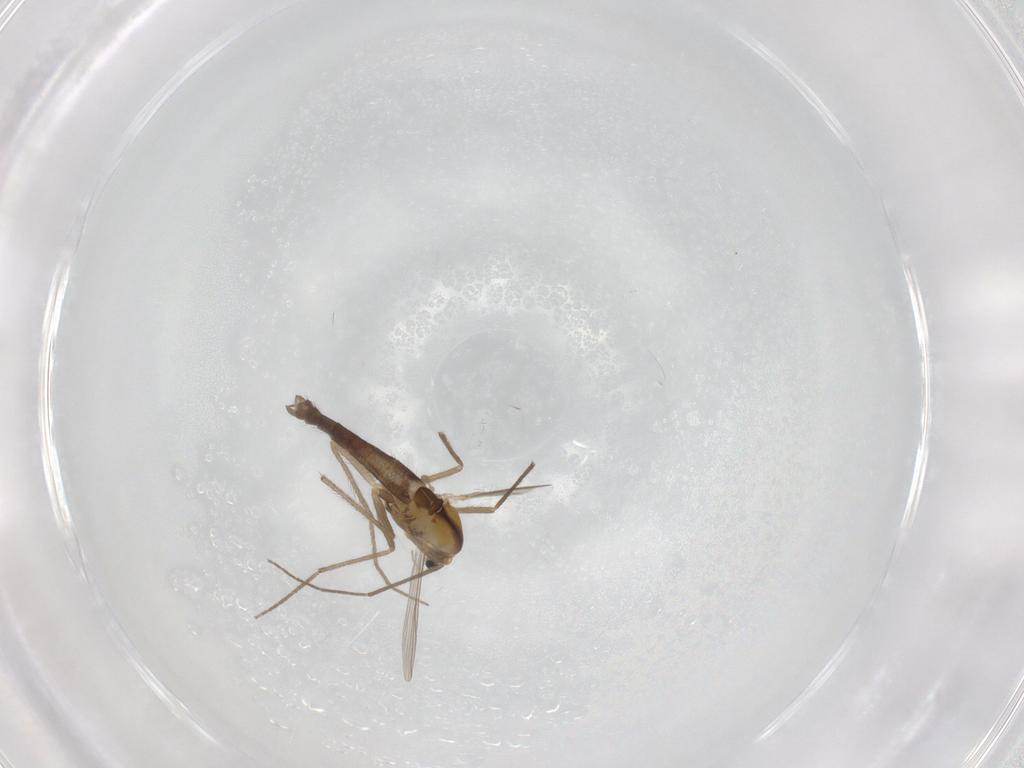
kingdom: Animalia
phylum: Arthropoda
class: Insecta
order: Diptera
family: Chironomidae
